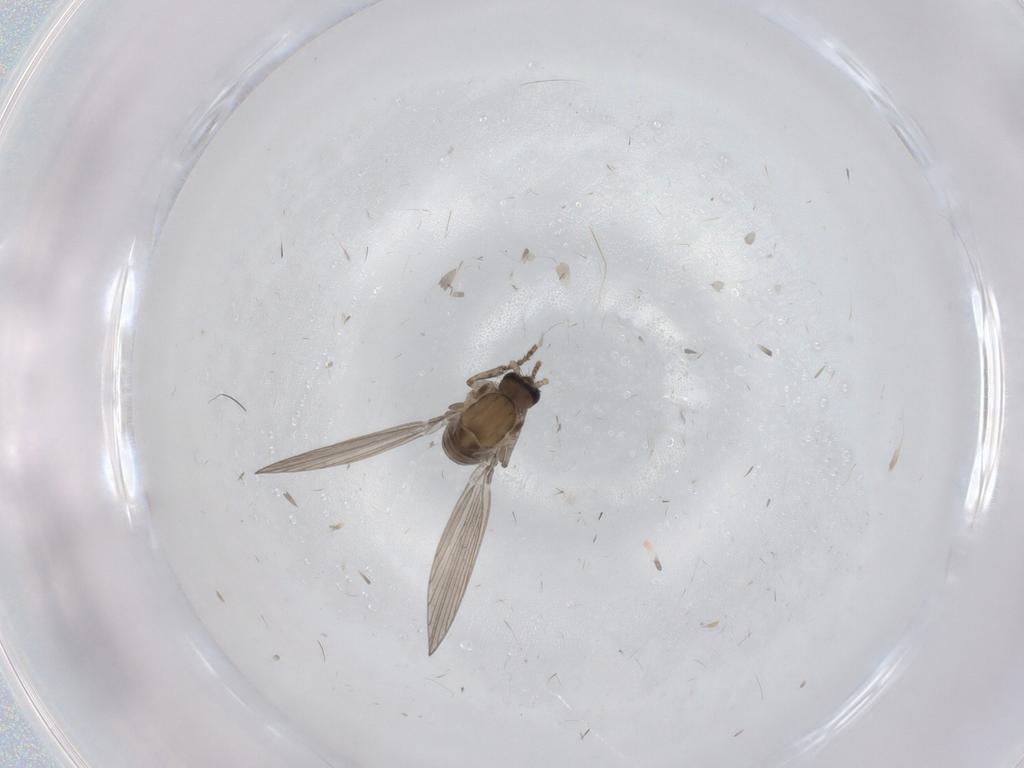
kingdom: Animalia
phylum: Arthropoda
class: Insecta
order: Diptera
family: Psychodidae
